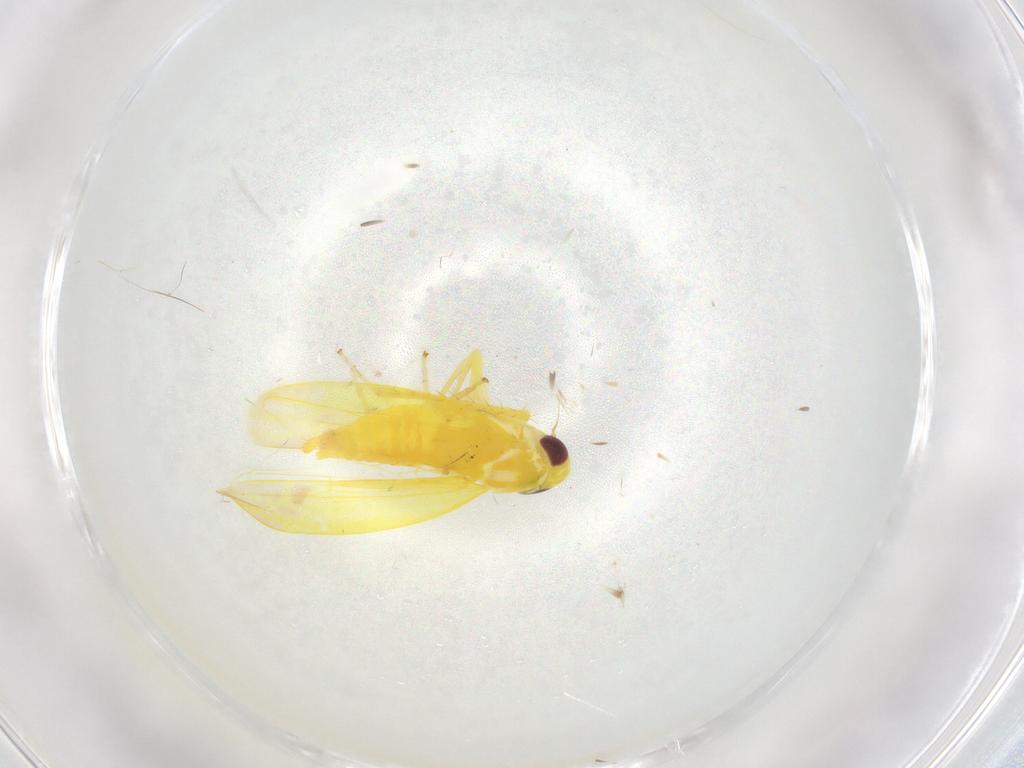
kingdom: Animalia
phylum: Arthropoda
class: Insecta
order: Hemiptera
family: Cicadellidae
